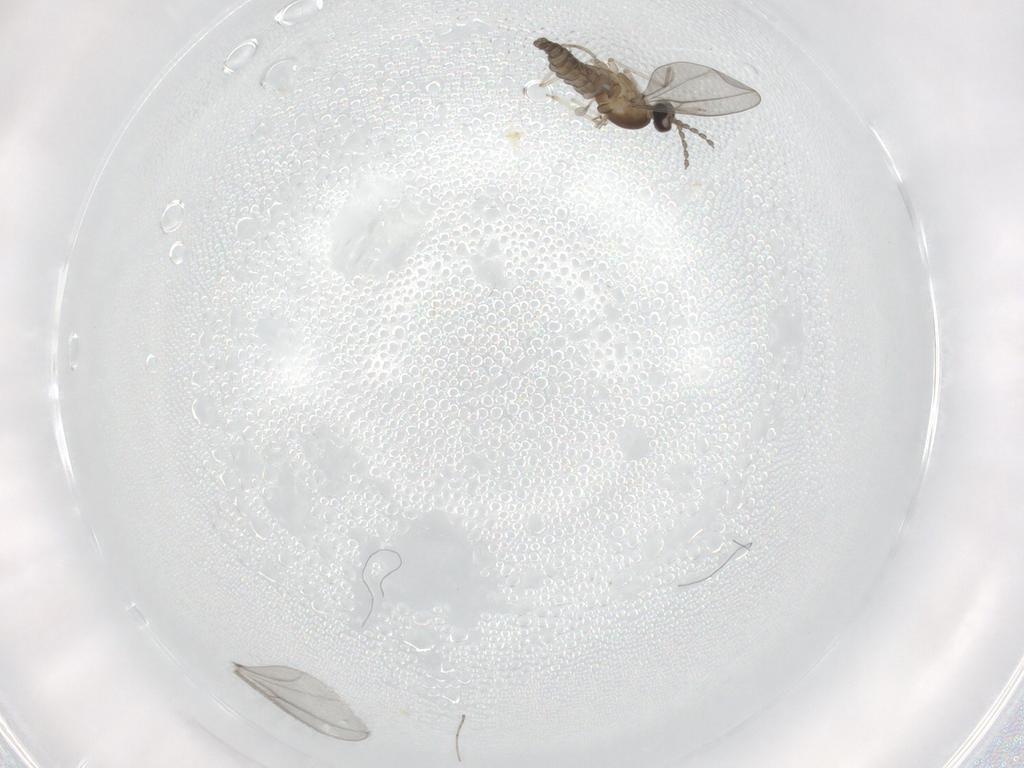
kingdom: Animalia
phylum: Arthropoda
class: Insecta
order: Diptera
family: Cecidomyiidae
